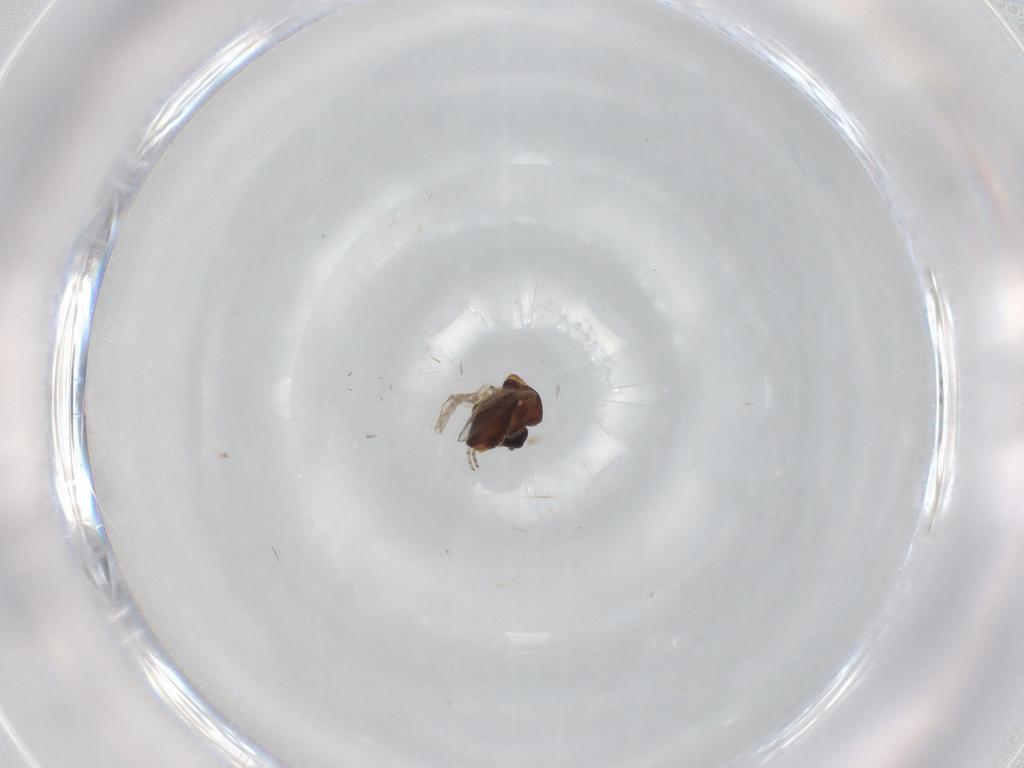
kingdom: Animalia
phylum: Arthropoda
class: Insecta
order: Diptera
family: Ceratopogonidae
